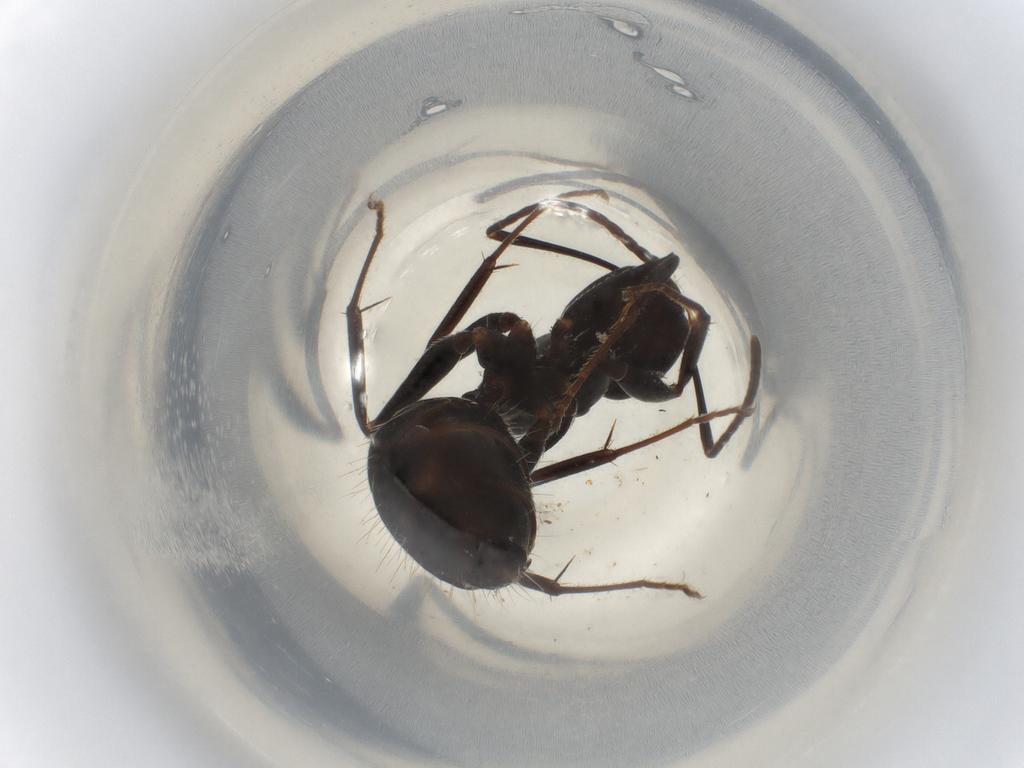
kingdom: Animalia
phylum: Arthropoda
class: Insecta
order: Hymenoptera
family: Formicidae
